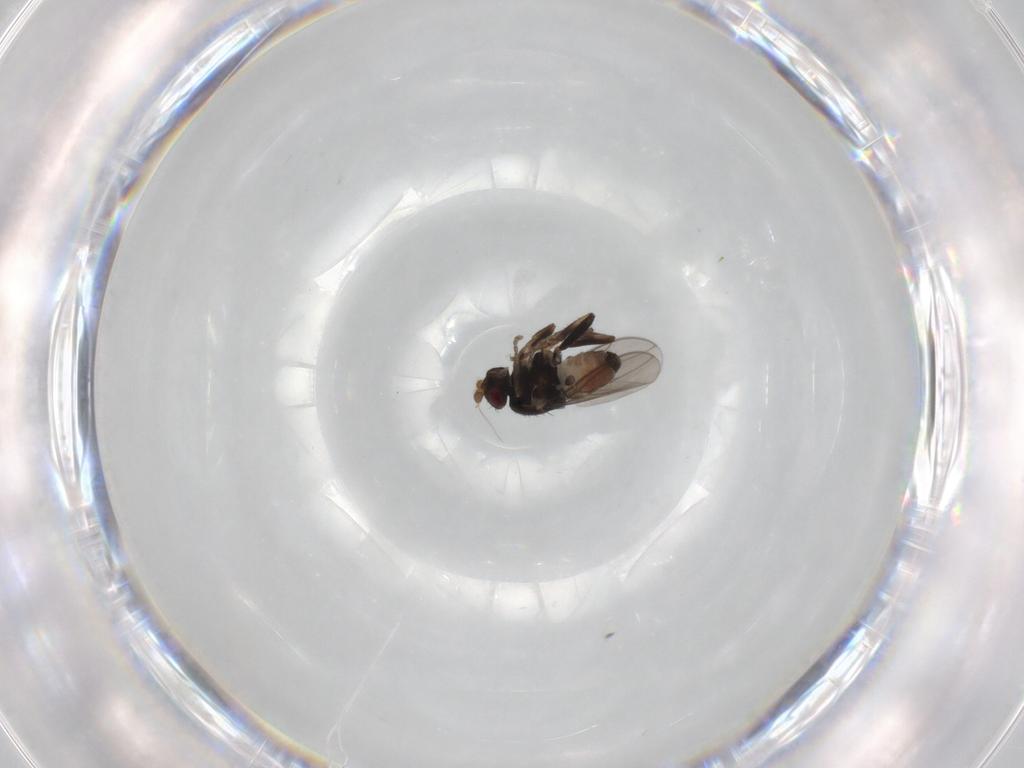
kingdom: Animalia
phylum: Arthropoda
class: Insecta
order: Diptera
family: Sphaeroceridae
